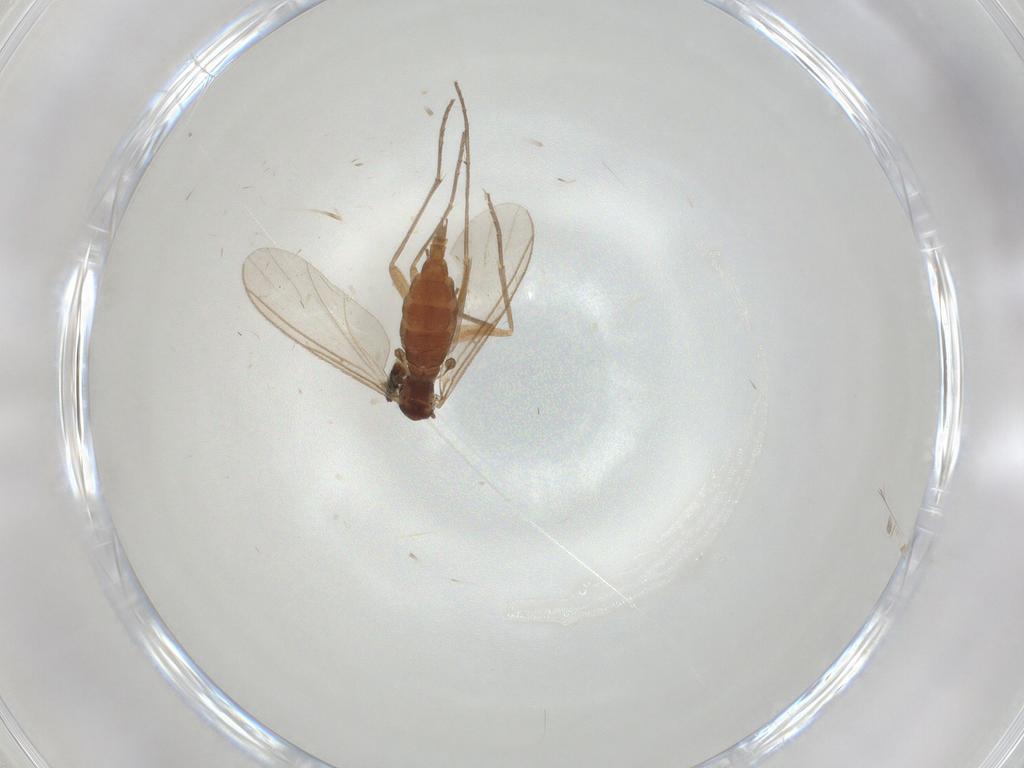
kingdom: Animalia
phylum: Arthropoda
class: Insecta
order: Diptera
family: Sciaridae
